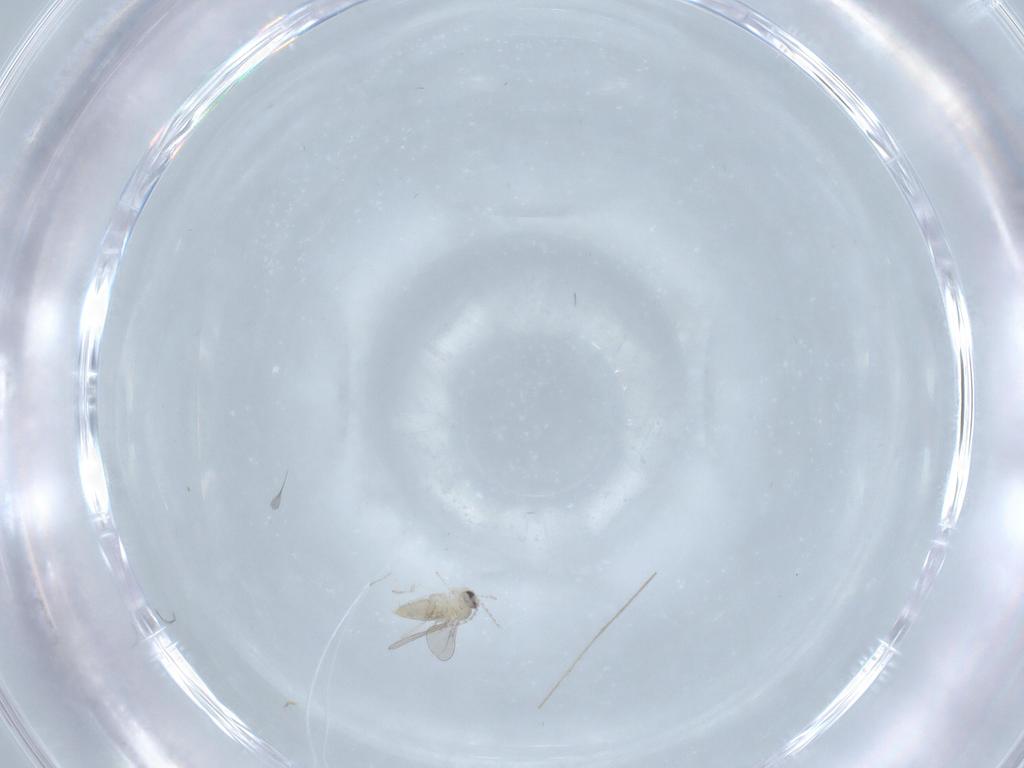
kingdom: Animalia
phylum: Arthropoda
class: Insecta
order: Diptera
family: Cecidomyiidae
